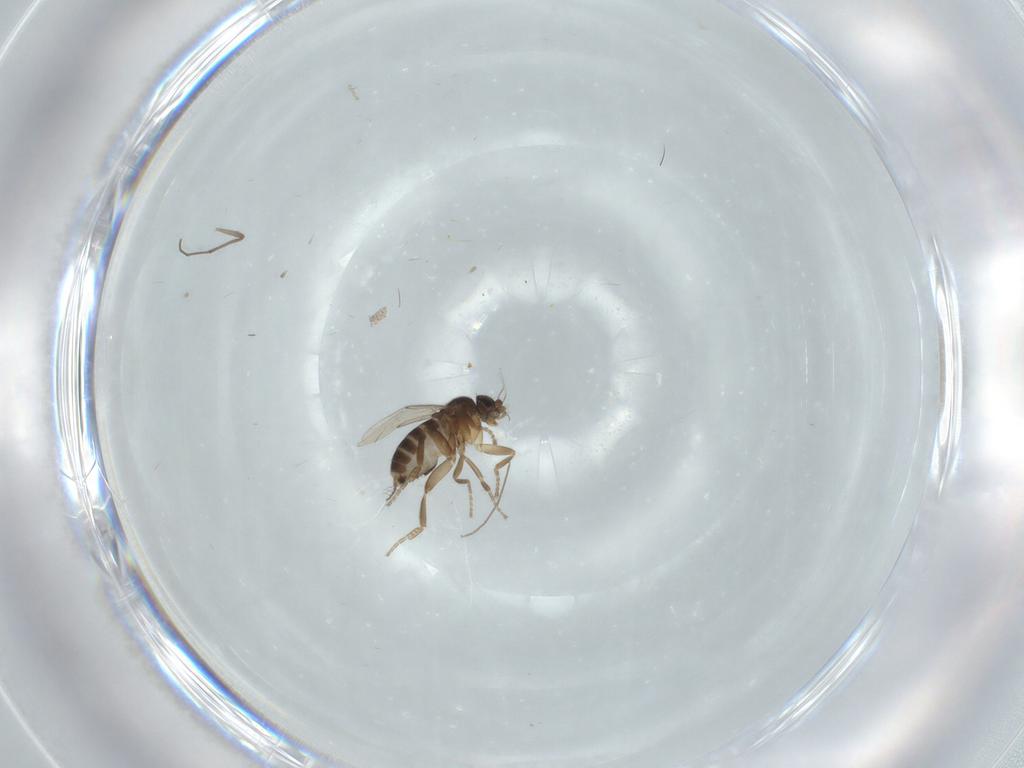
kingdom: Animalia
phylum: Arthropoda
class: Insecta
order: Diptera
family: Phoridae
